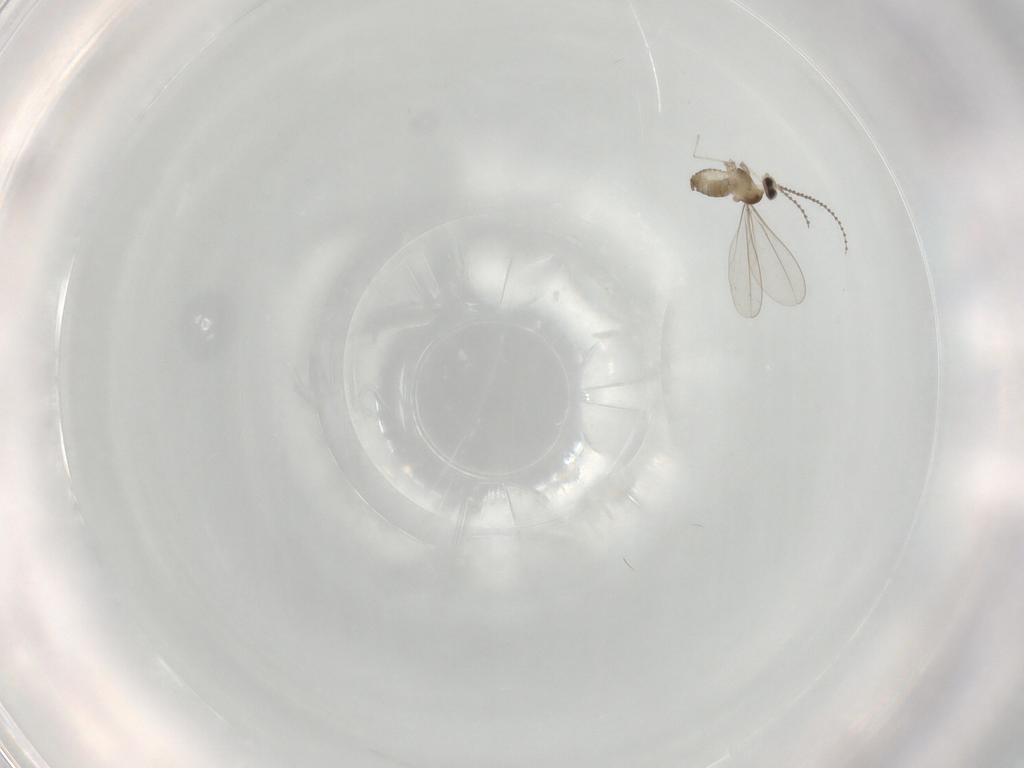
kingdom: Animalia
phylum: Arthropoda
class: Insecta
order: Diptera
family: Cecidomyiidae
